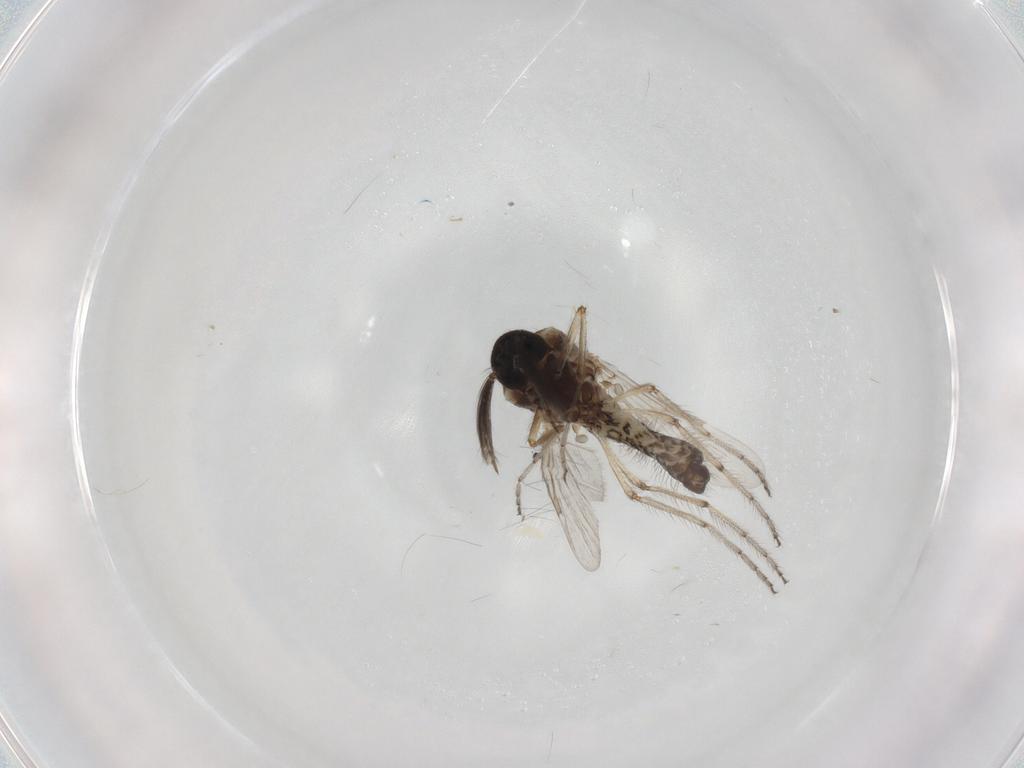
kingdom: Animalia
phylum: Arthropoda
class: Insecta
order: Diptera
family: Ceratopogonidae
